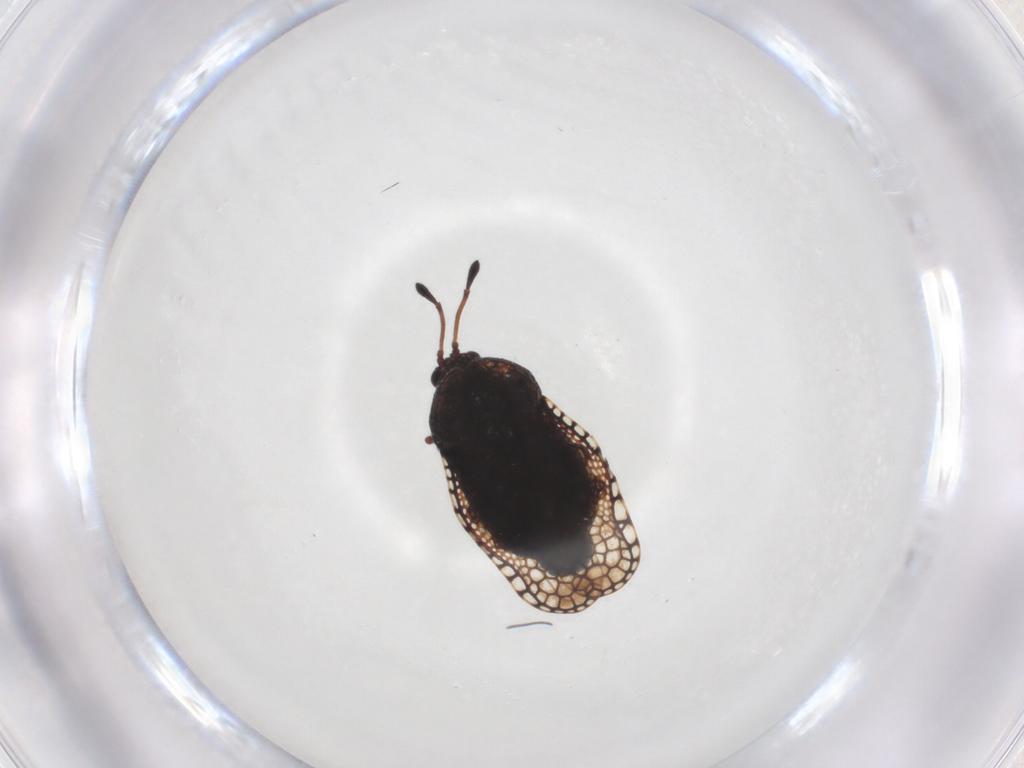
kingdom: Animalia
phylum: Arthropoda
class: Insecta
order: Hemiptera
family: Tingidae
